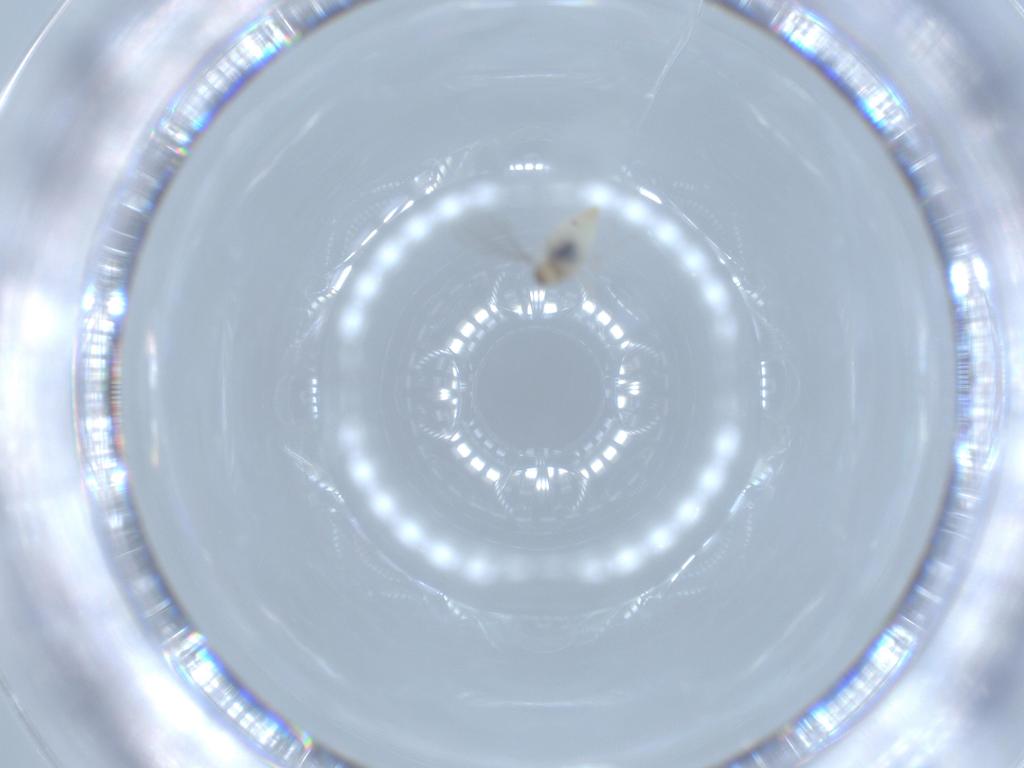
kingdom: Animalia
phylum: Arthropoda
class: Insecta
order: Diptera
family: Cecidomyiidae
